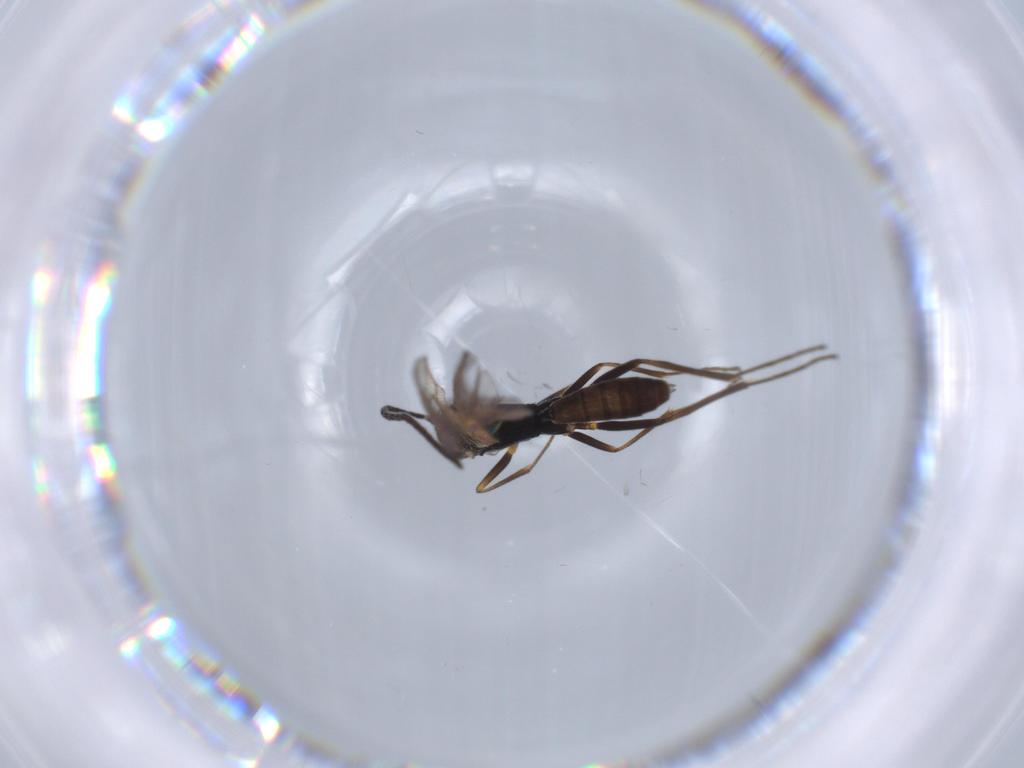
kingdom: Animalia
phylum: Arthropoda
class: Insecta
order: Hymenoptera
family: Ichneumonidae
